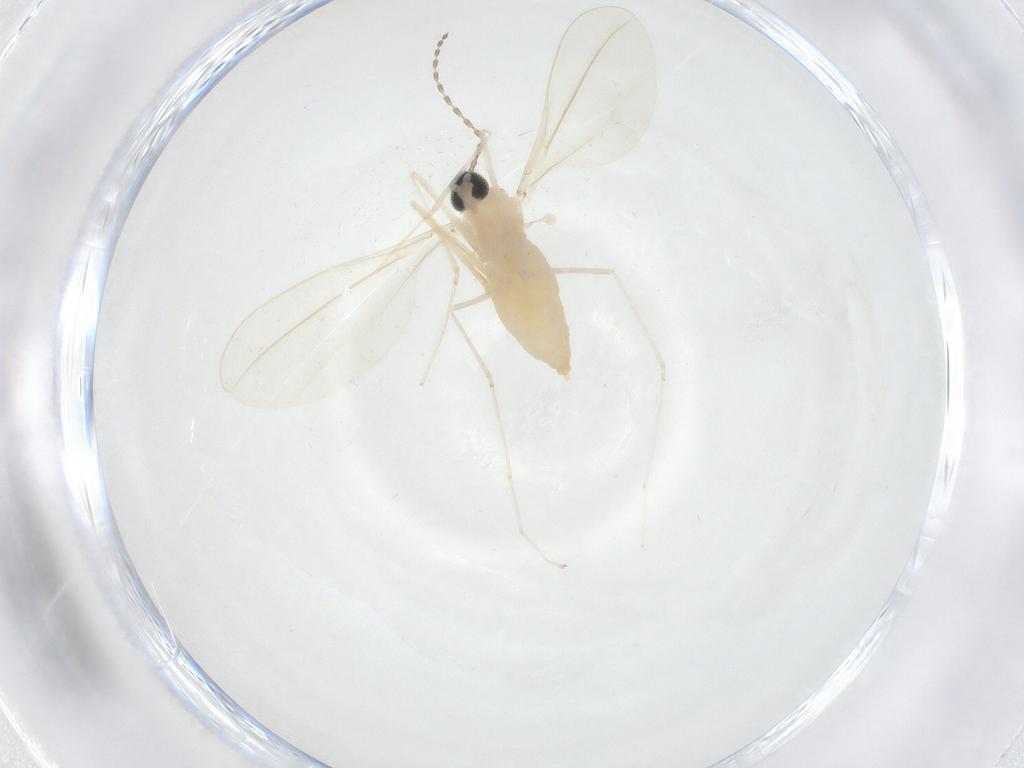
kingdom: Animalia
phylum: Arthropoda
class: Insecta
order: Diptera
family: Cecidomyiidae
